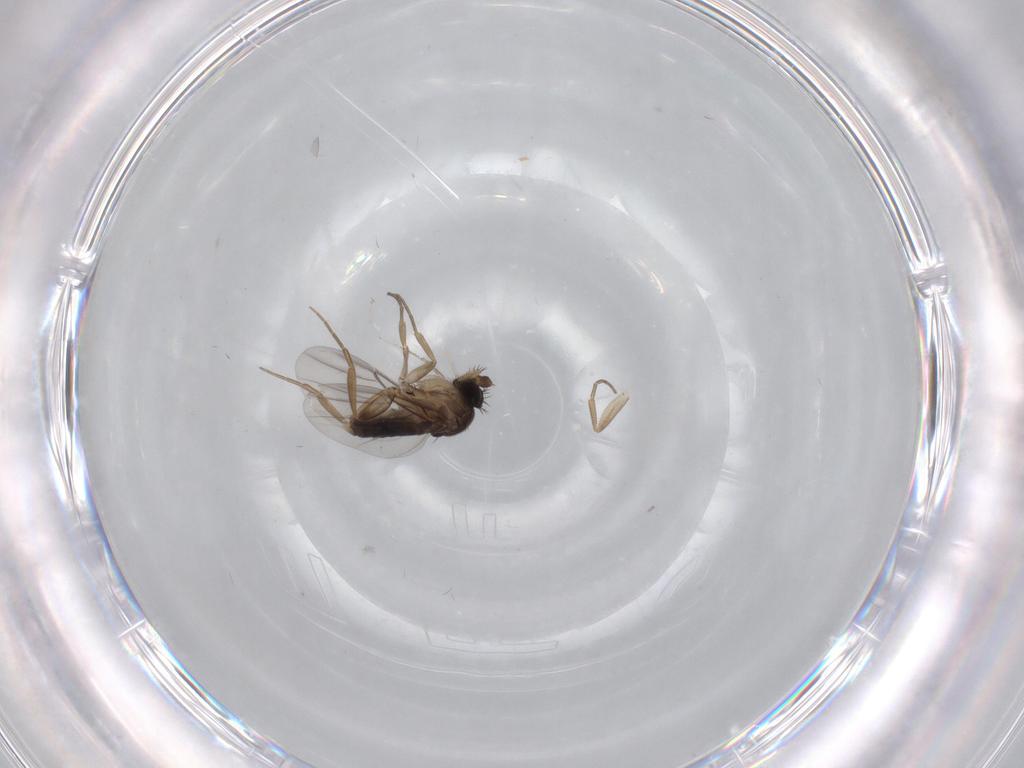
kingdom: Animalia
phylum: Arthropoda
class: Insecta
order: Diptera
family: Phoridae
